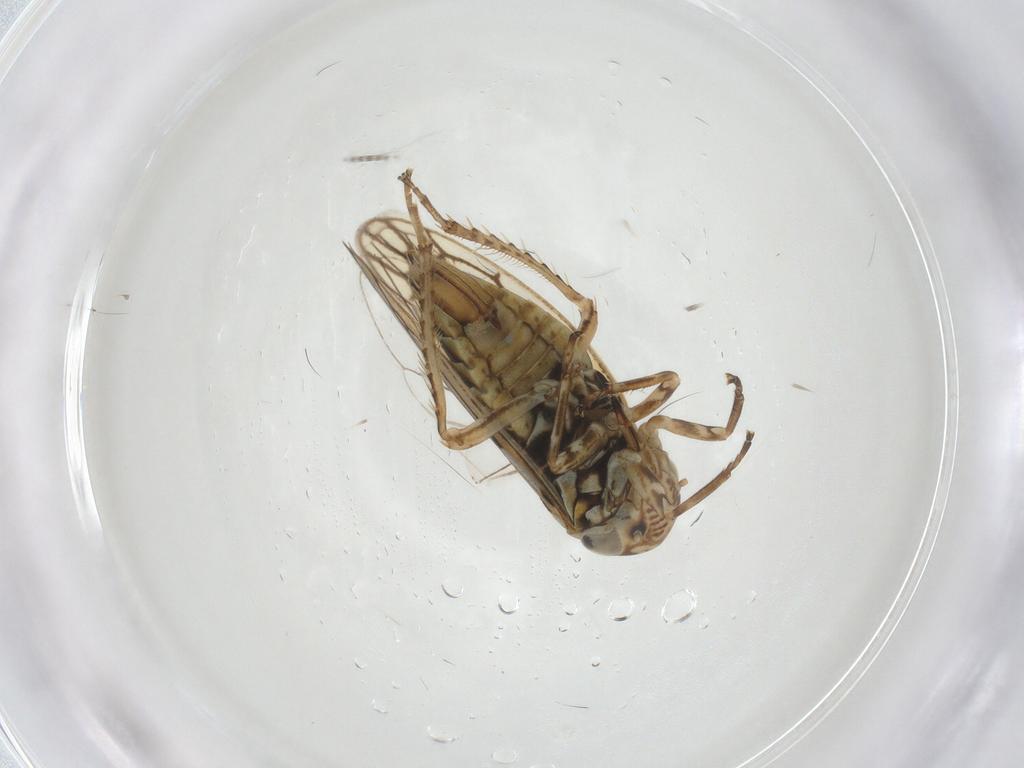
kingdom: Animalia
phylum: Arthropoda
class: Insecta
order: Hemiptera
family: Cicadellidae
